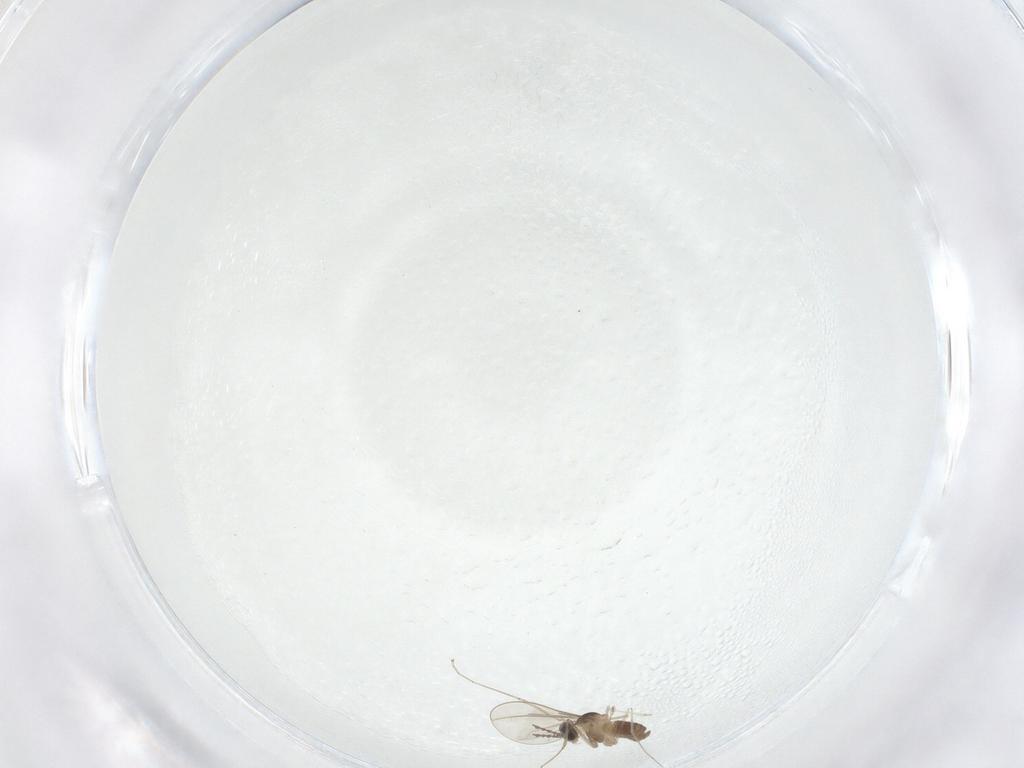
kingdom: Animalia
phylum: Arthropoda
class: Insecta
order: Diptera
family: Cecidomyiidae
